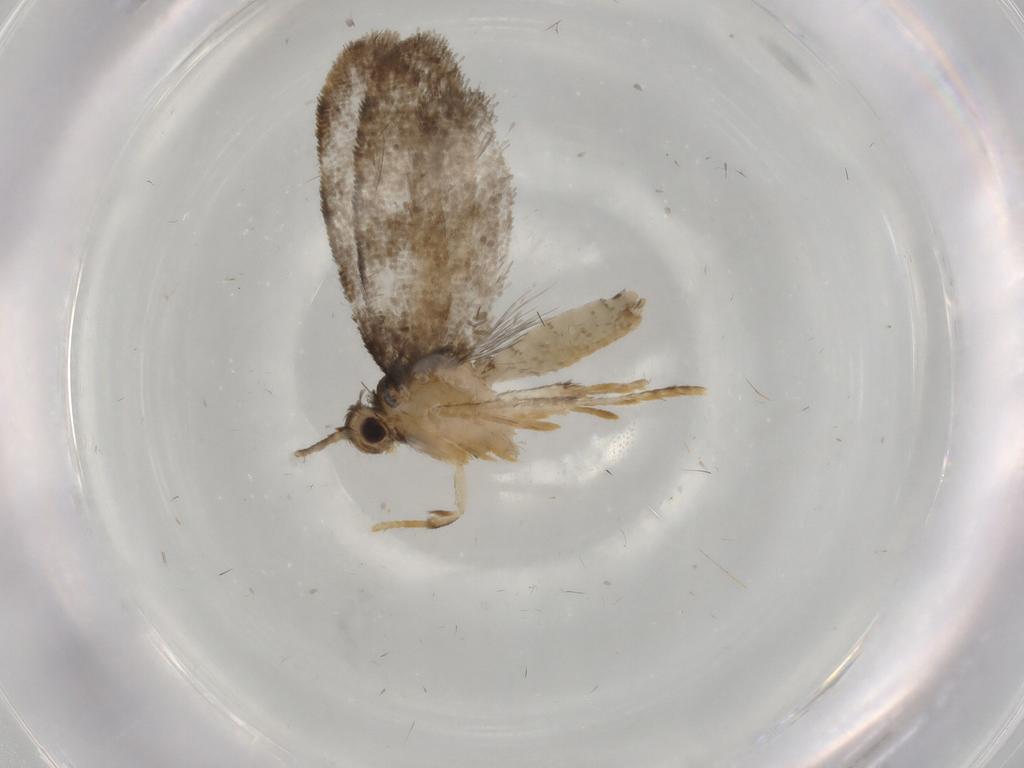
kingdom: Animalia
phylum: Arthropoda
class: Insecta
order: Lepidoptera
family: Psychidae
